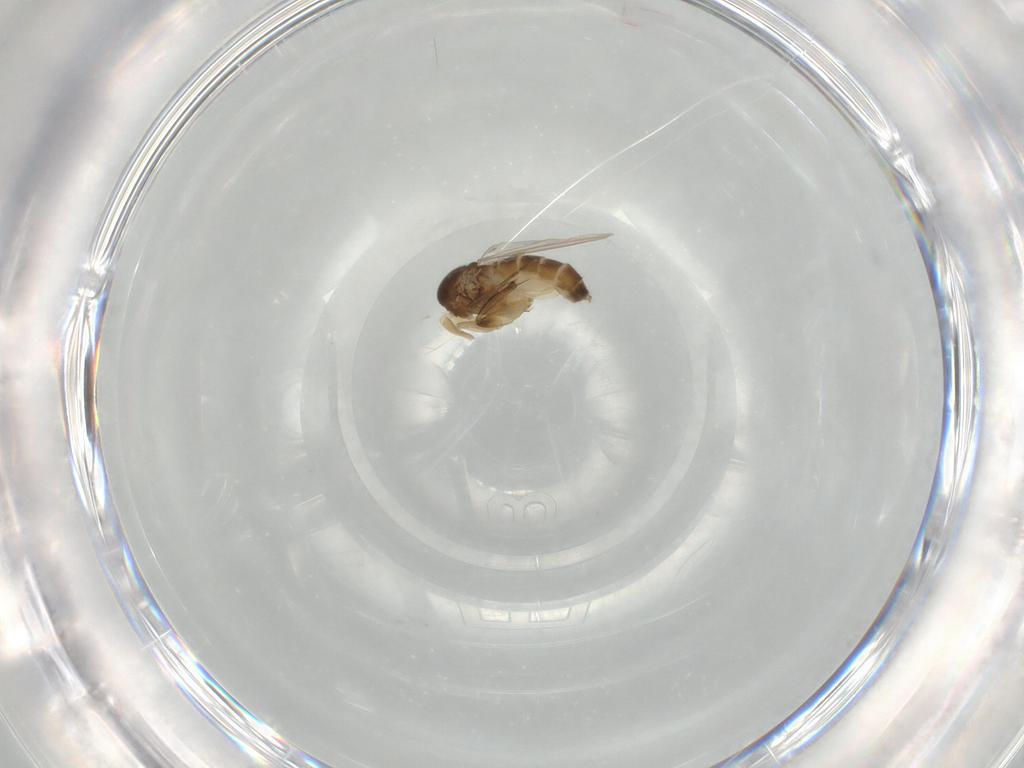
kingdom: Animalia
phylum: Arthropoda
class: Insecta
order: Diptera
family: Phoridae
